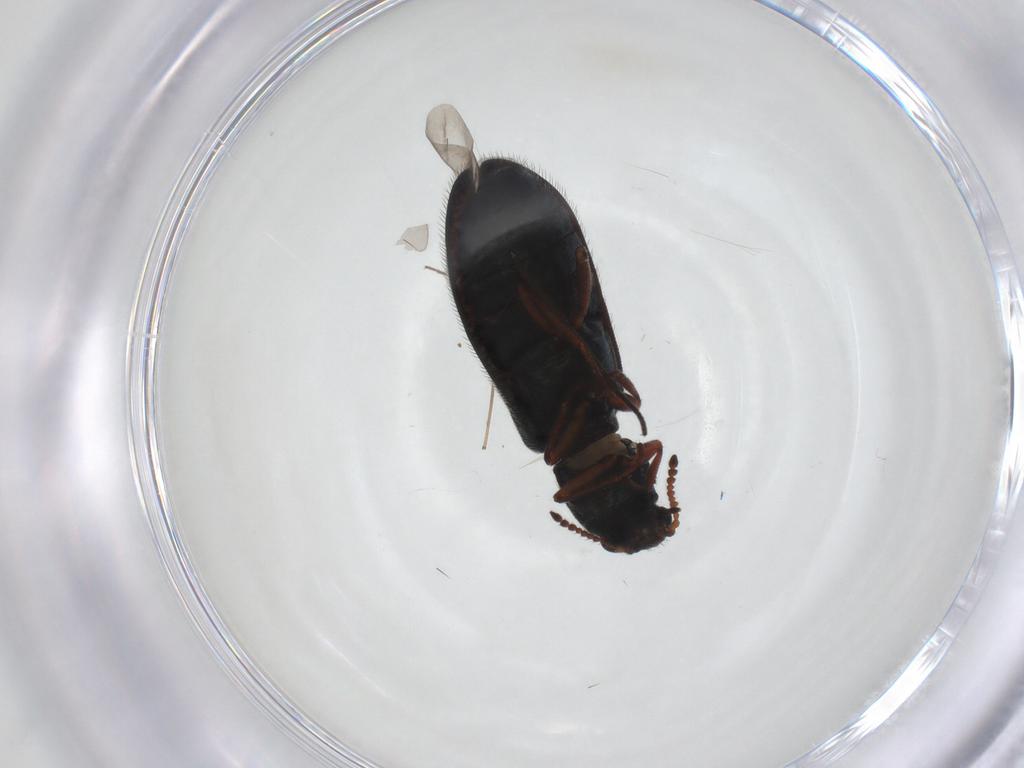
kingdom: Animalia
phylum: Arthropoda
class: Insecta
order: Coleoptera
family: Melyridae
